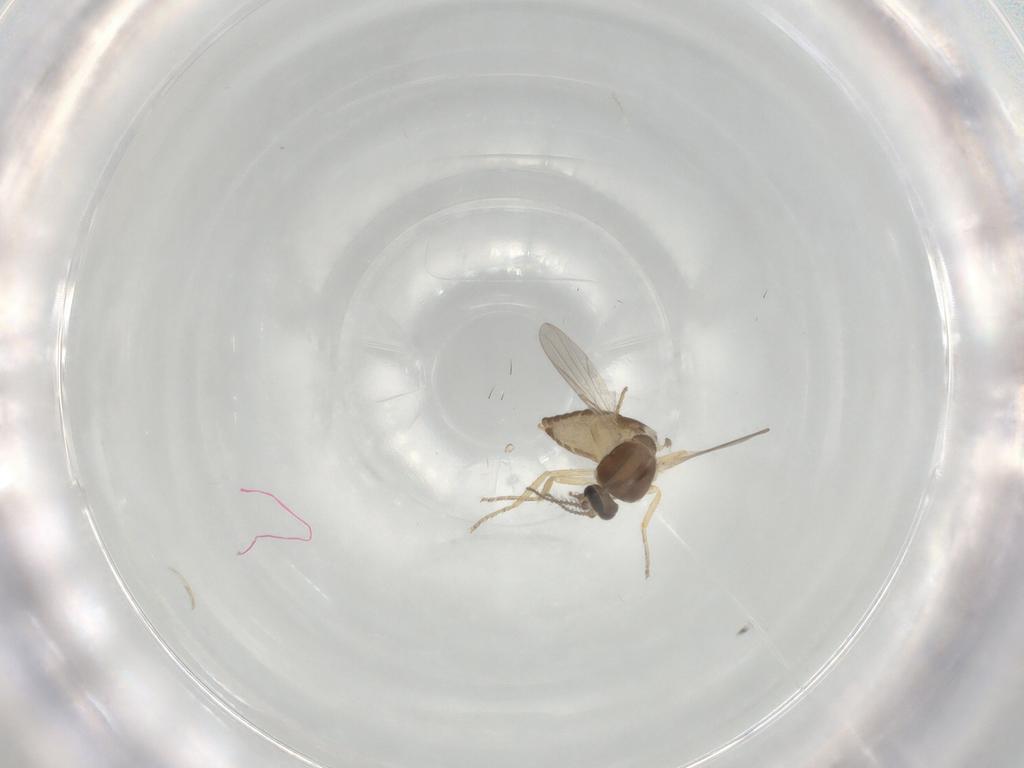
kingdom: Animalia
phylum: Arthropoda
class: Insecta
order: Diptera
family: Ceratopogonidae
